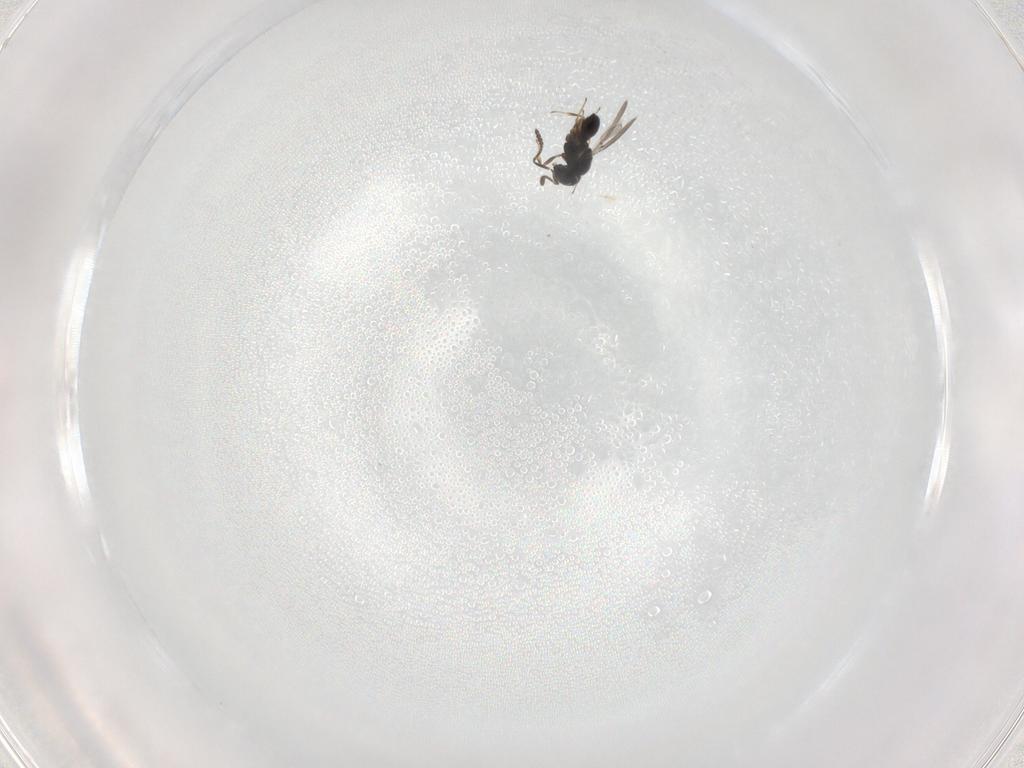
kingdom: Animalia
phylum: Arthropoda
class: Insecta
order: Hymenoptera
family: Scelionidae
